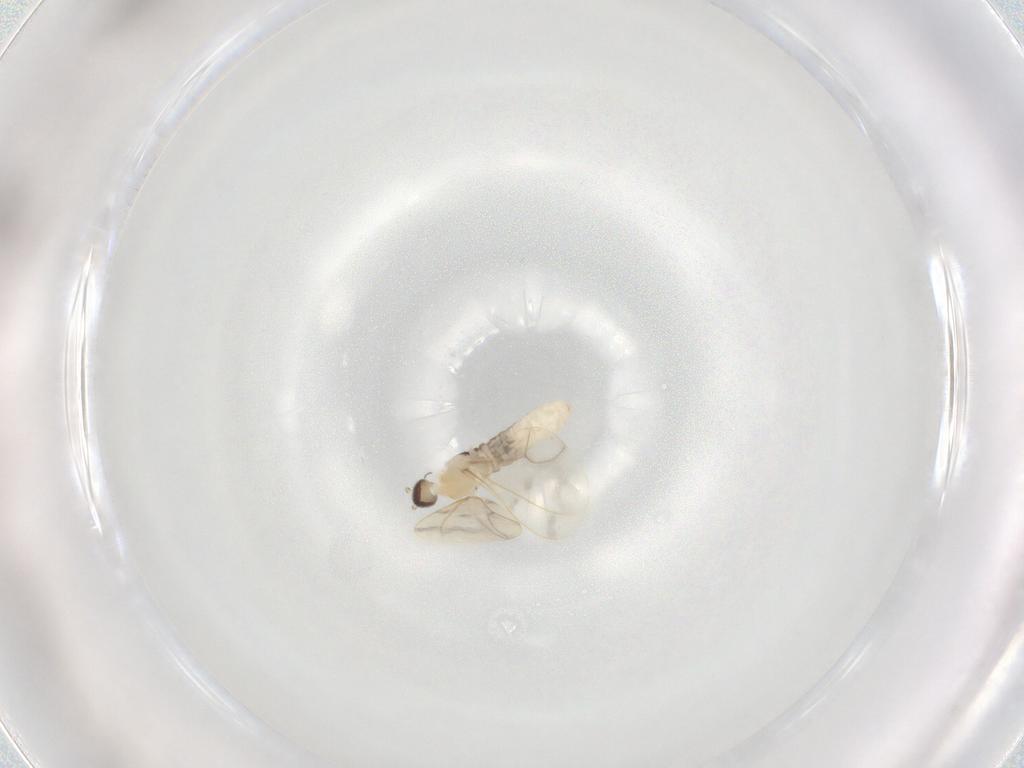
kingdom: Animalia
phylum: Arthropoda
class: Insecta
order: Diptera
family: Cecidomyiidae
